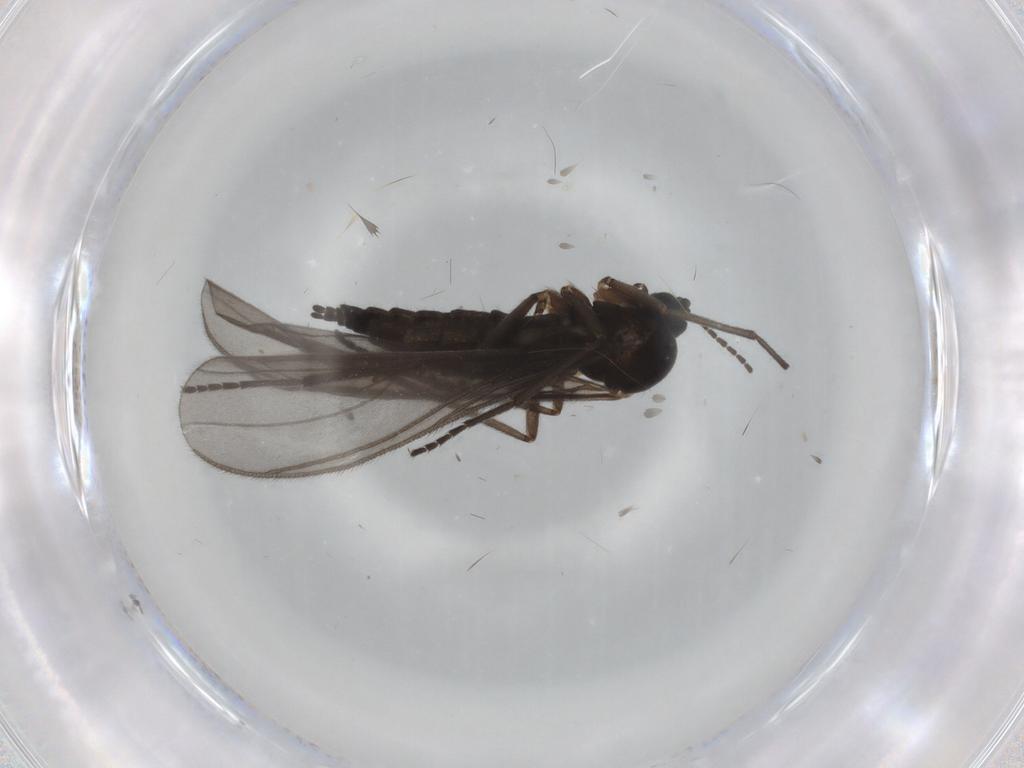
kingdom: Animalia
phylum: Arthropoda
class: Insecta
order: Diptera
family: Sciaridae
